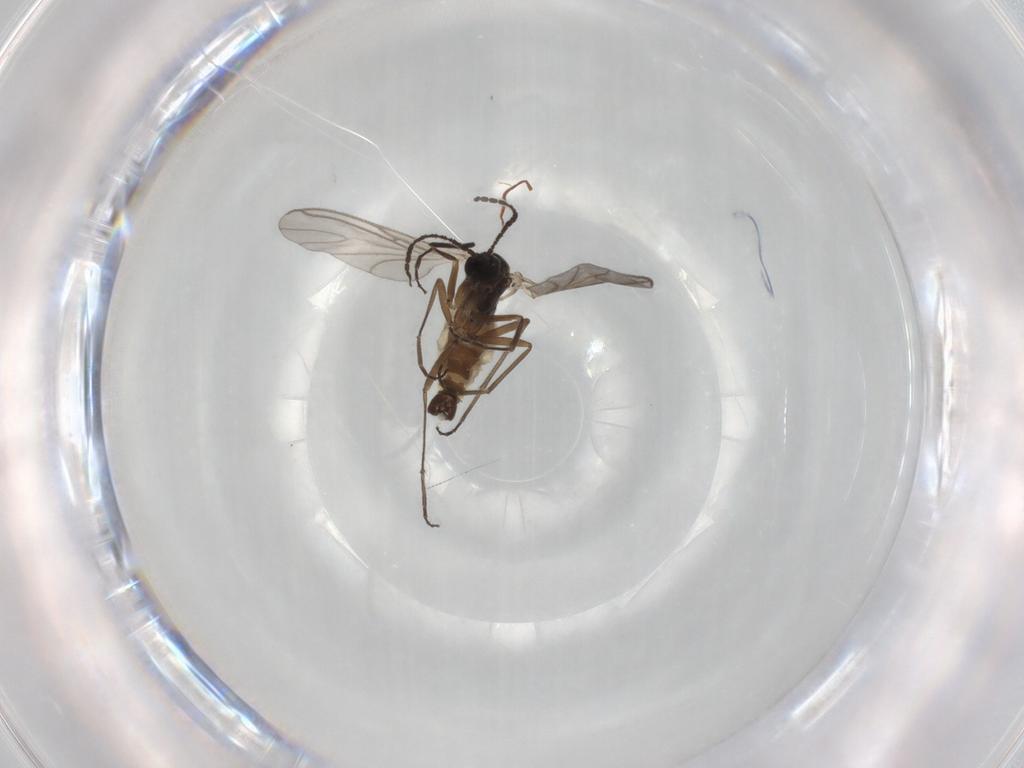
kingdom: Animalia
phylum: Arthropoda
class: Insecta
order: Diptera
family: Sciaridae
